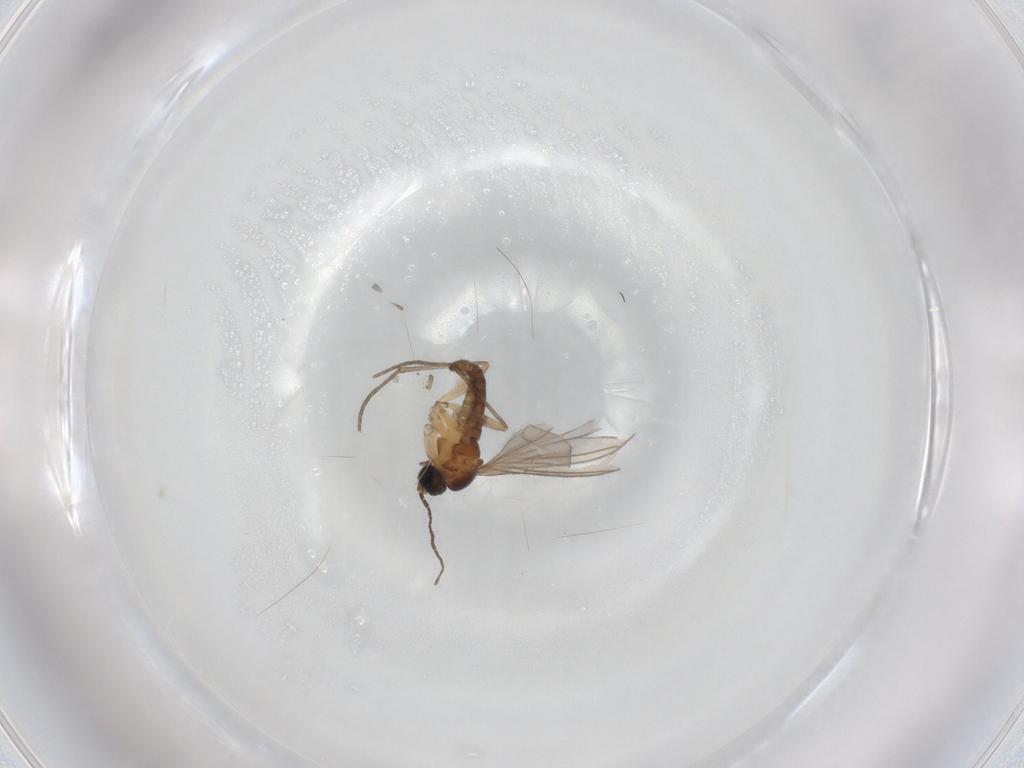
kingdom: Animalia
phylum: Arthropoda
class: Insecta
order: Diptera
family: Sciaridae
